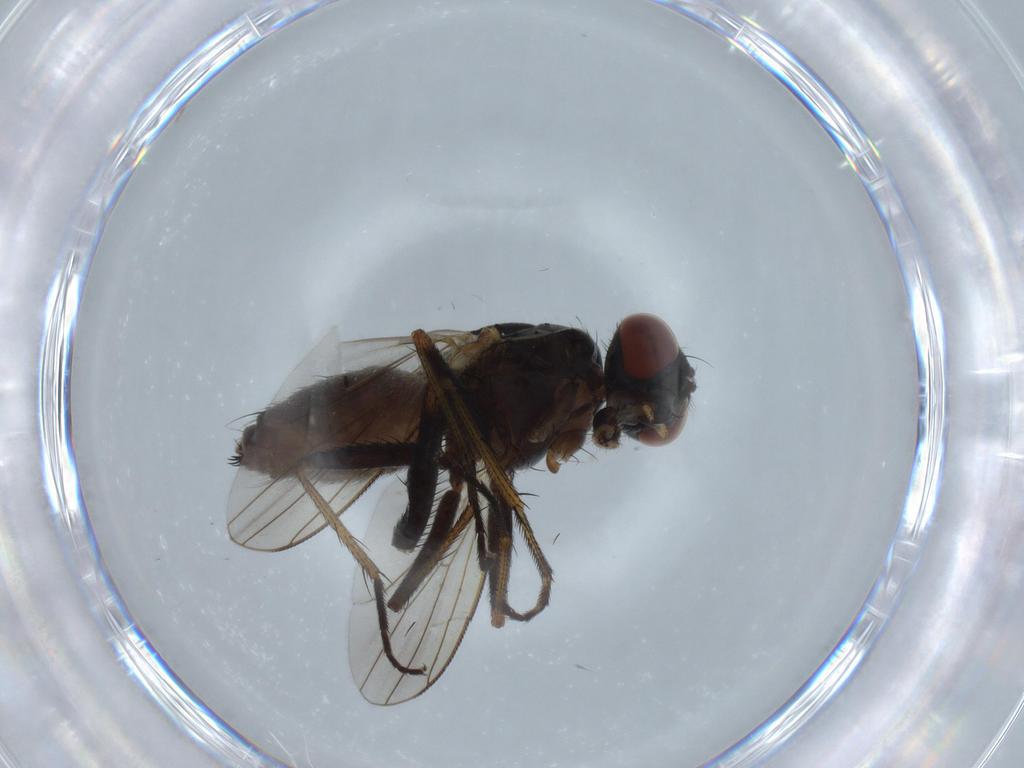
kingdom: Animalia
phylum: Arthropoda
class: Insecta
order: Diptera
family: Muscidae
